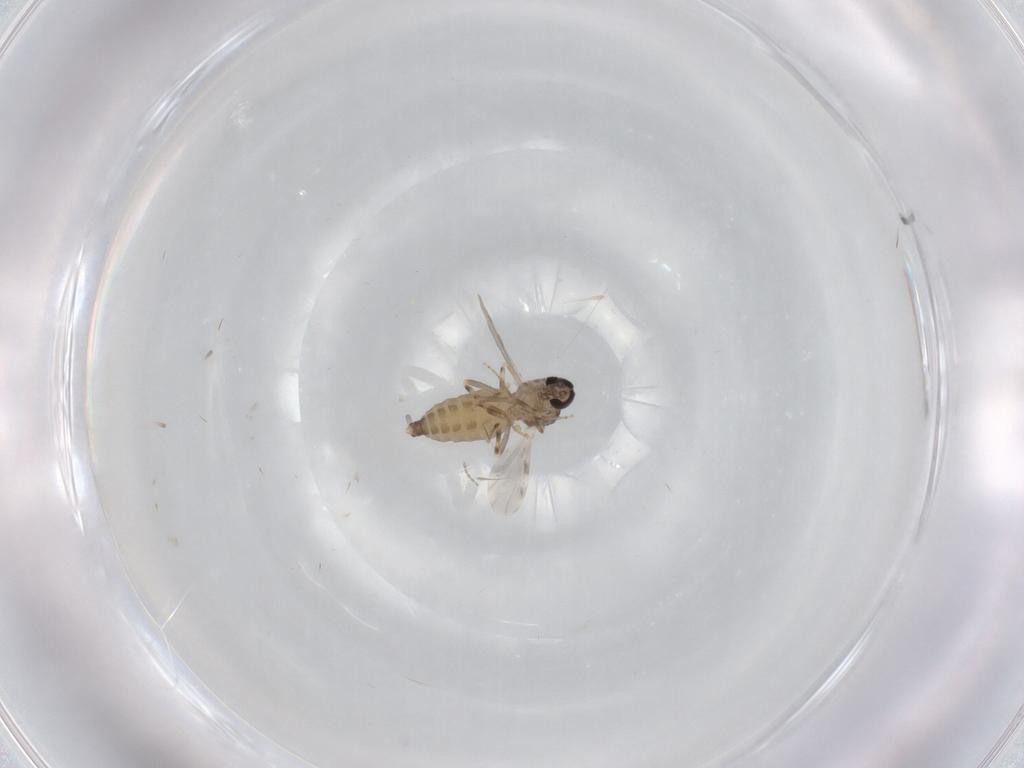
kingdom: Animalia
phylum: Arthropoda
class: Insecta
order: Diptera
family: Ceratopogonidae
